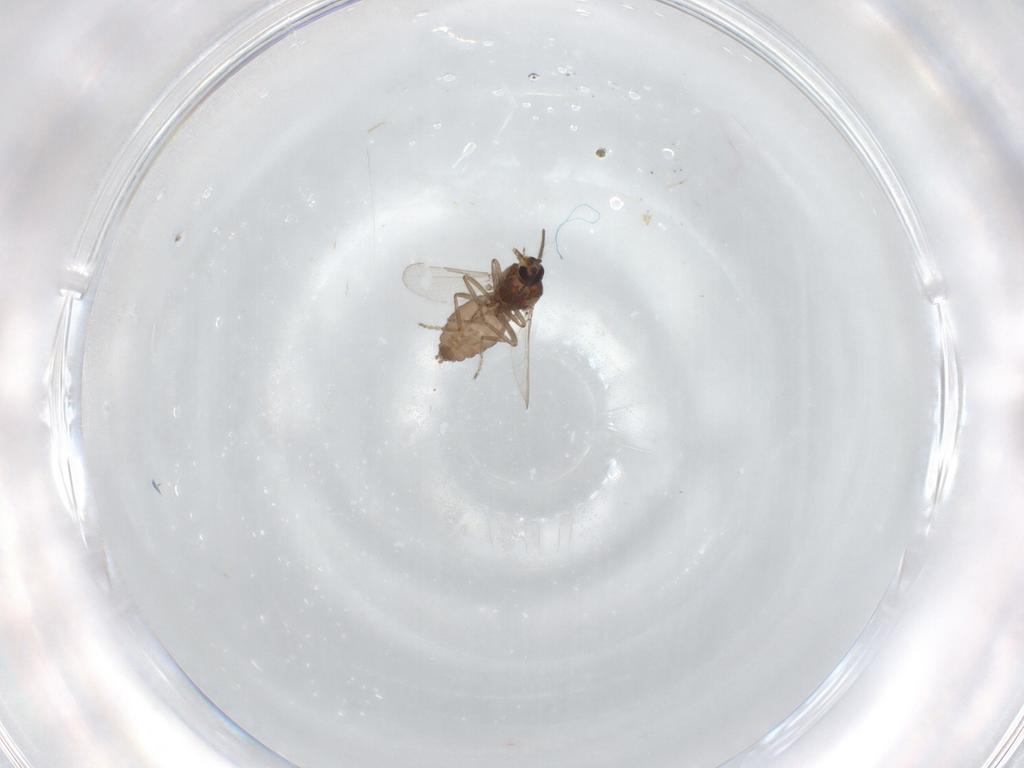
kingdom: Animalia
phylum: Arthropoda
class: Insecta
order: Diptera
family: Ceratopogonidae
